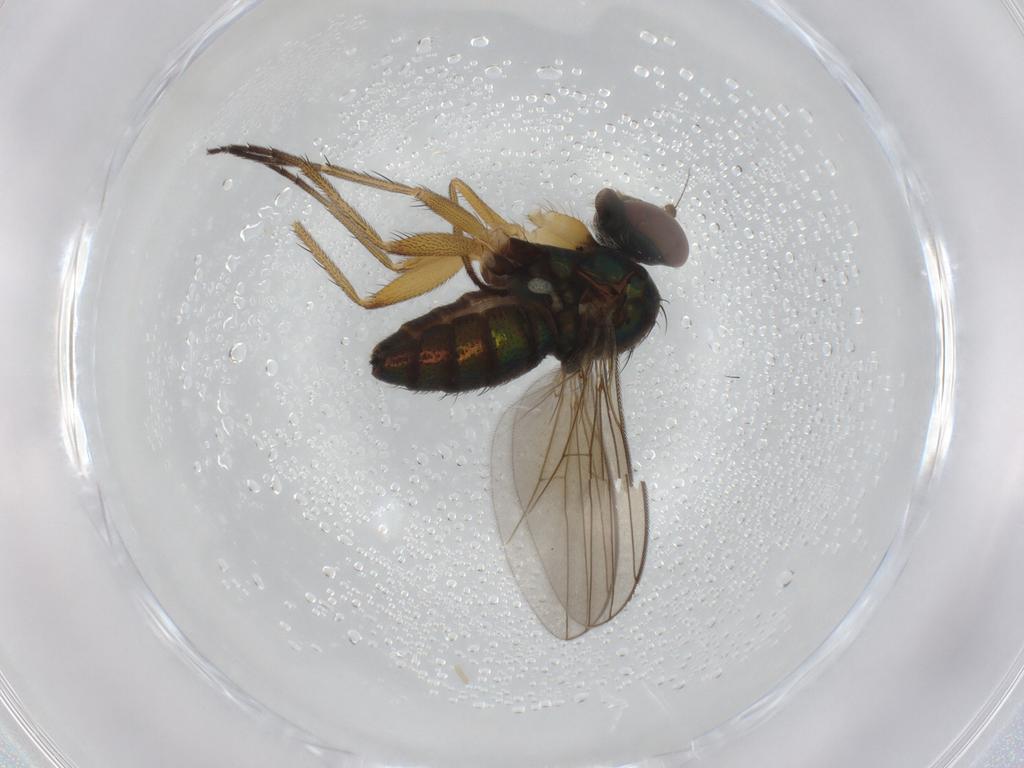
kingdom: Animalia
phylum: Arthropoda
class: Insecta
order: Diptera
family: Dolichopodidae
